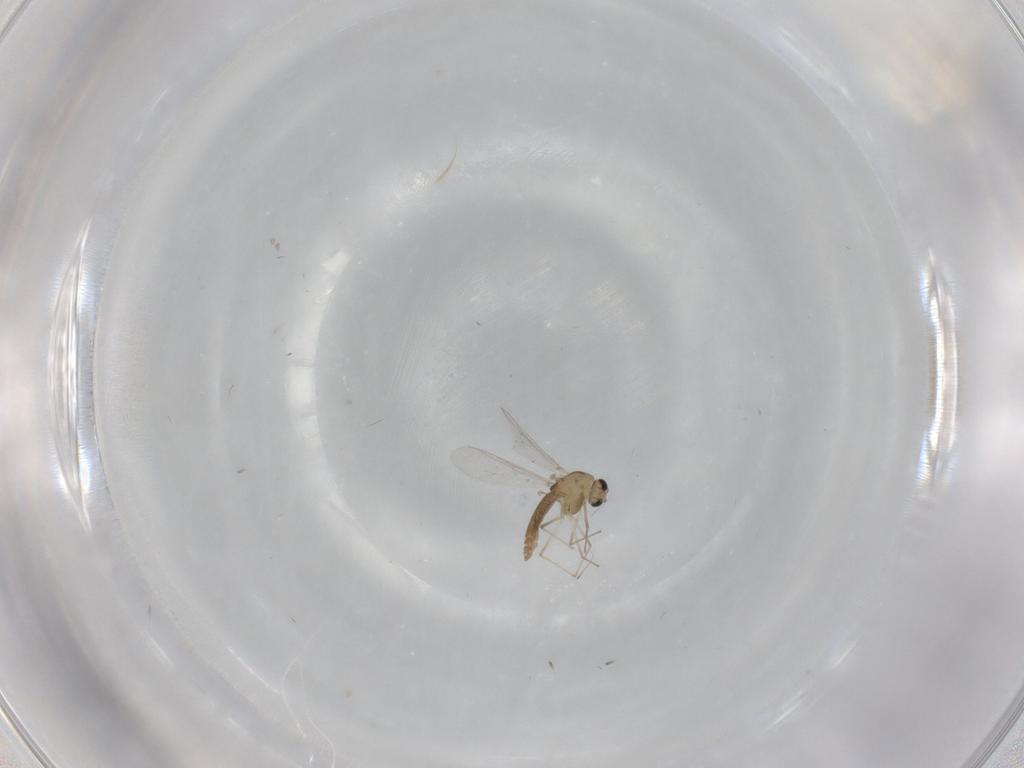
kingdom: Animalia
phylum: Arthropoda
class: Insecta
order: Diptera
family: Chironomidae
